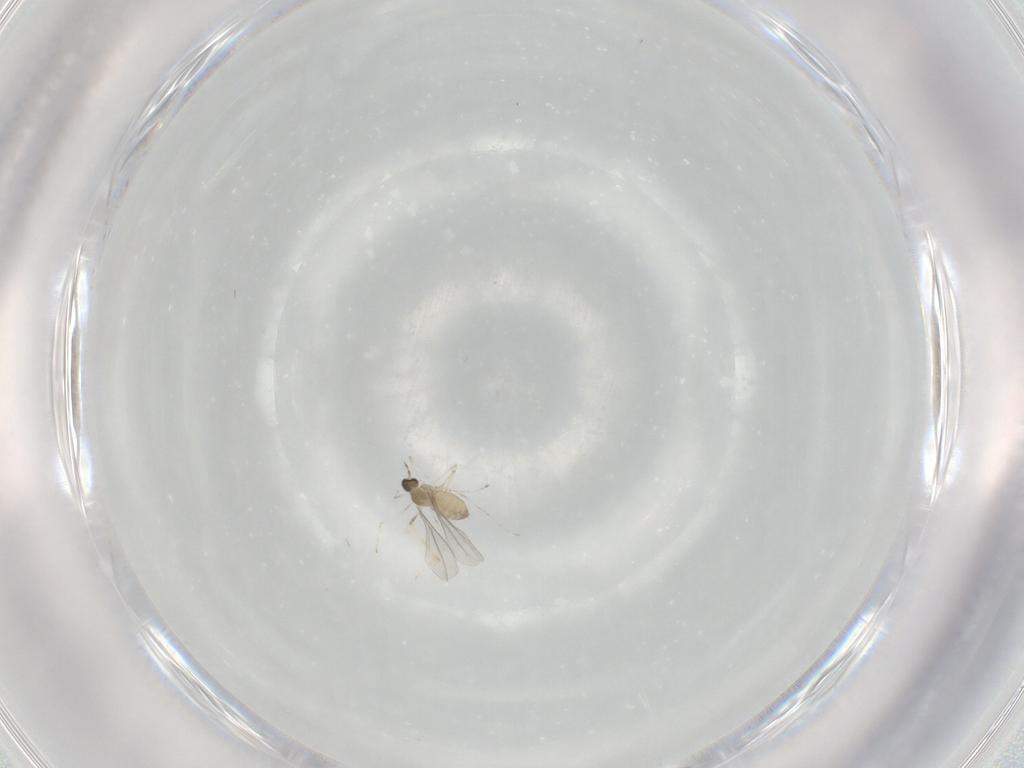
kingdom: Animalia
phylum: Arthropoda
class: Insecta
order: Diptera
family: Cecidomyiidae
